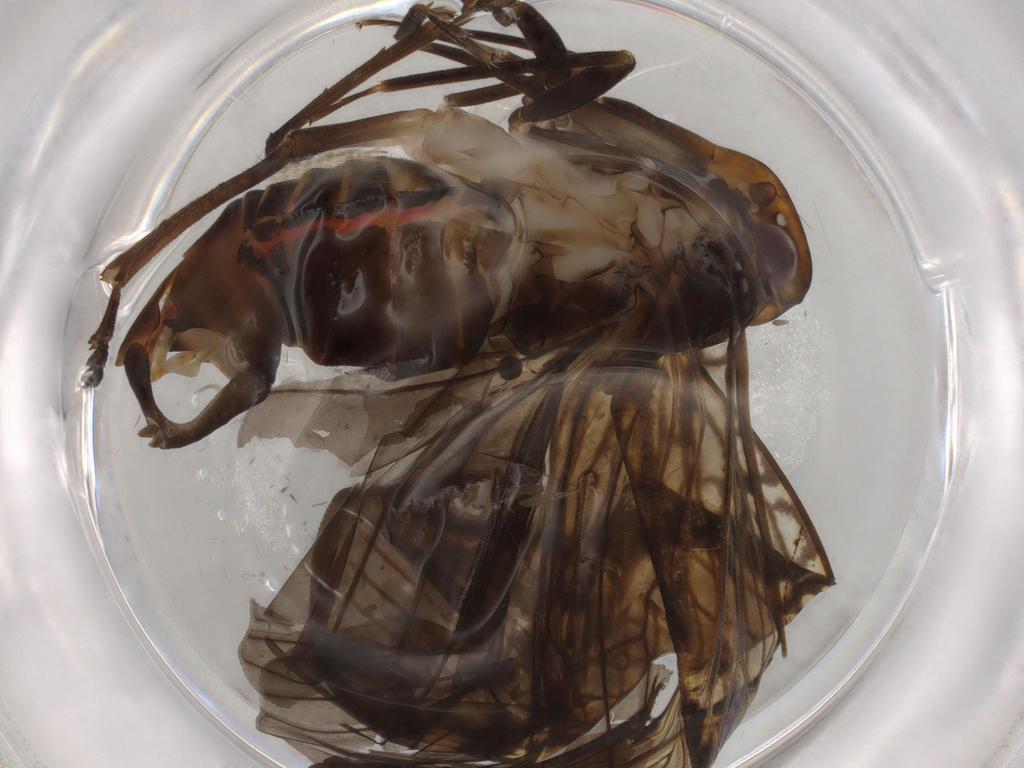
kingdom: Animalia
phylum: Arthropoda
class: Insecta
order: Hemiptera
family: Cixiidae
